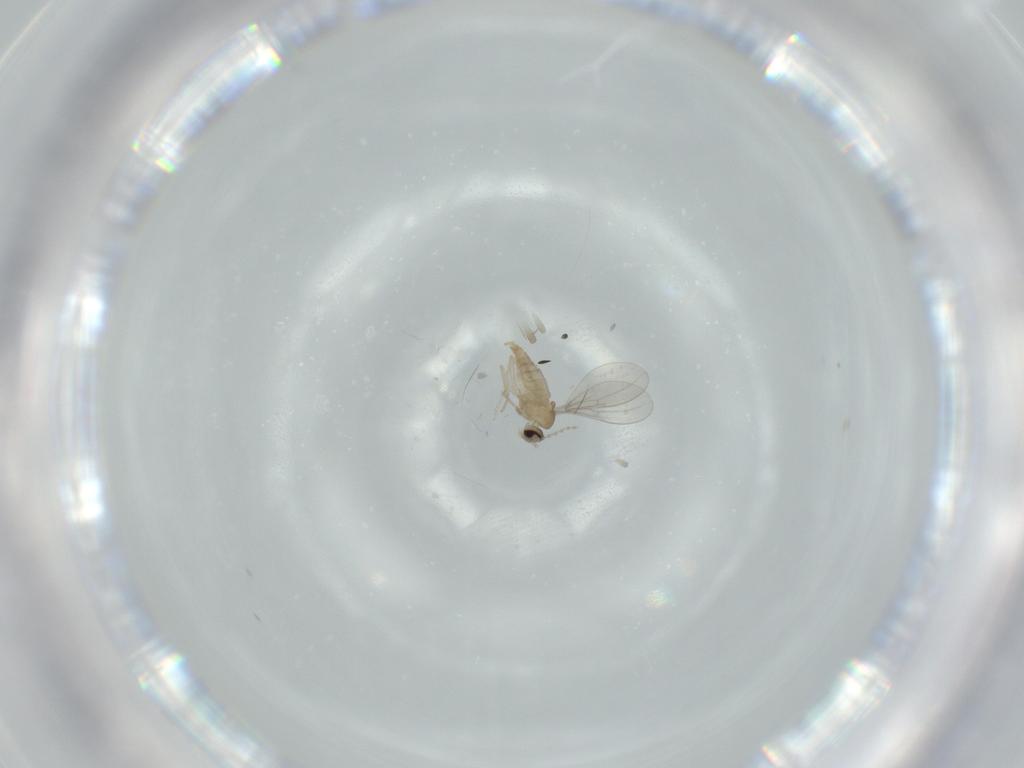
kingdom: Animalia
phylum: Arthropoda
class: Insecta
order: Diptera
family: Cecidomyiidae
